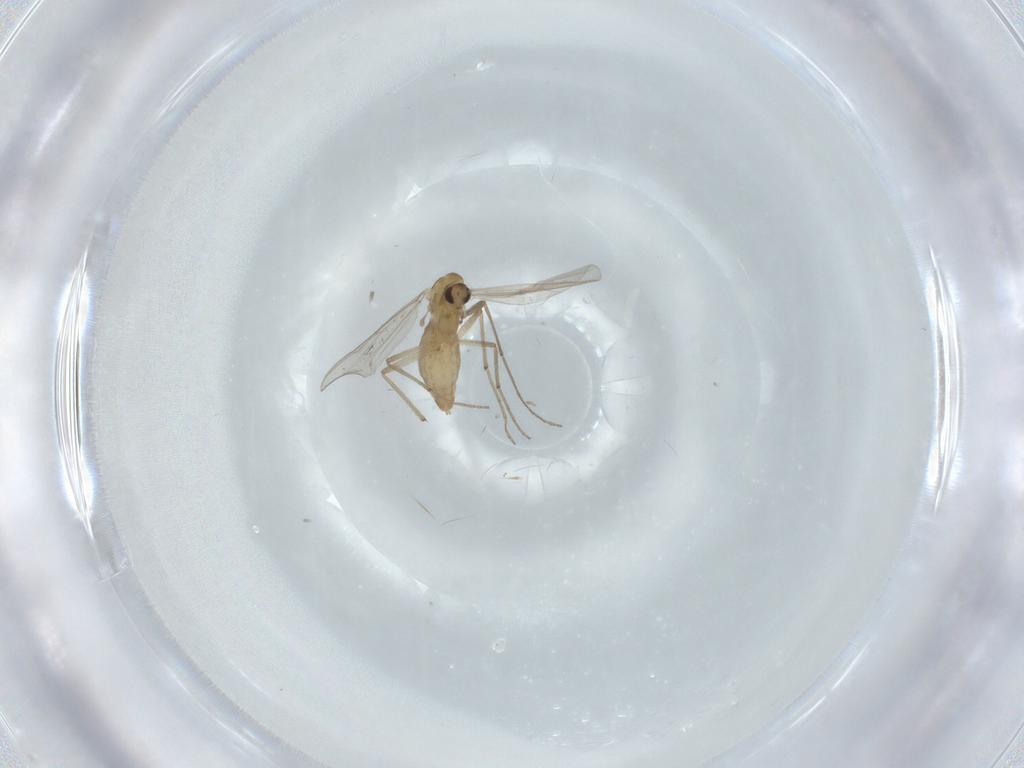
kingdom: Animalia
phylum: Arthropoda
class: Insecta
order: Diptera
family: Chironomidae
